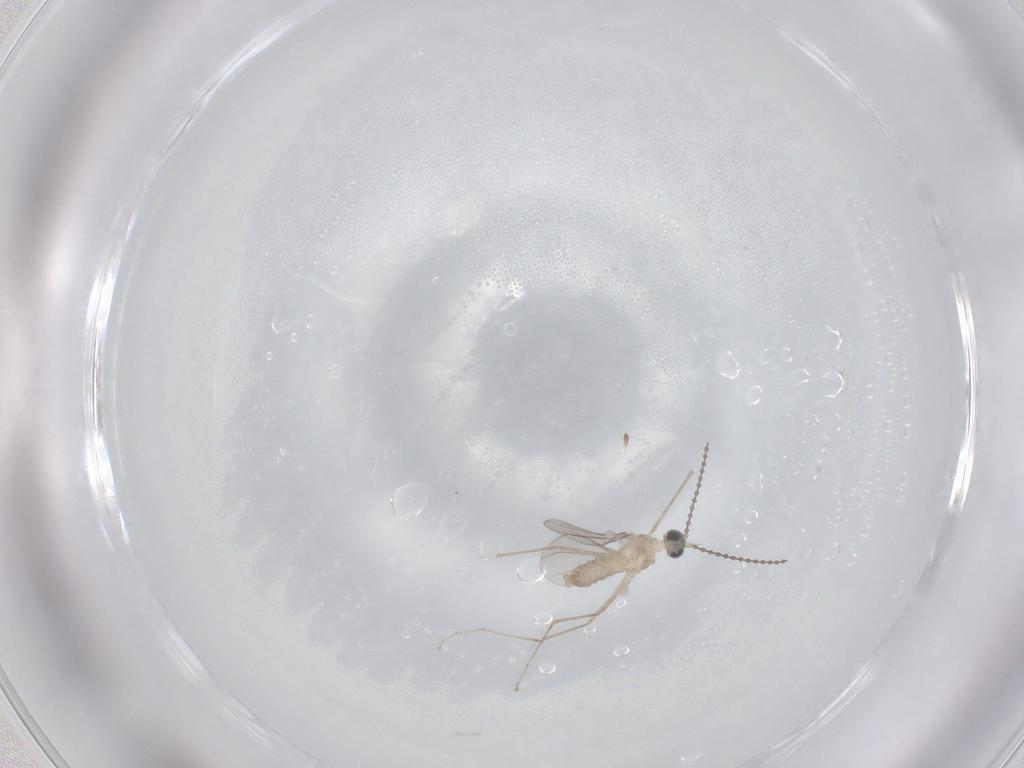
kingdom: Animalia
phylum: Arthropoda
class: Insecta
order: Diptera
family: Cecidomyiidae
